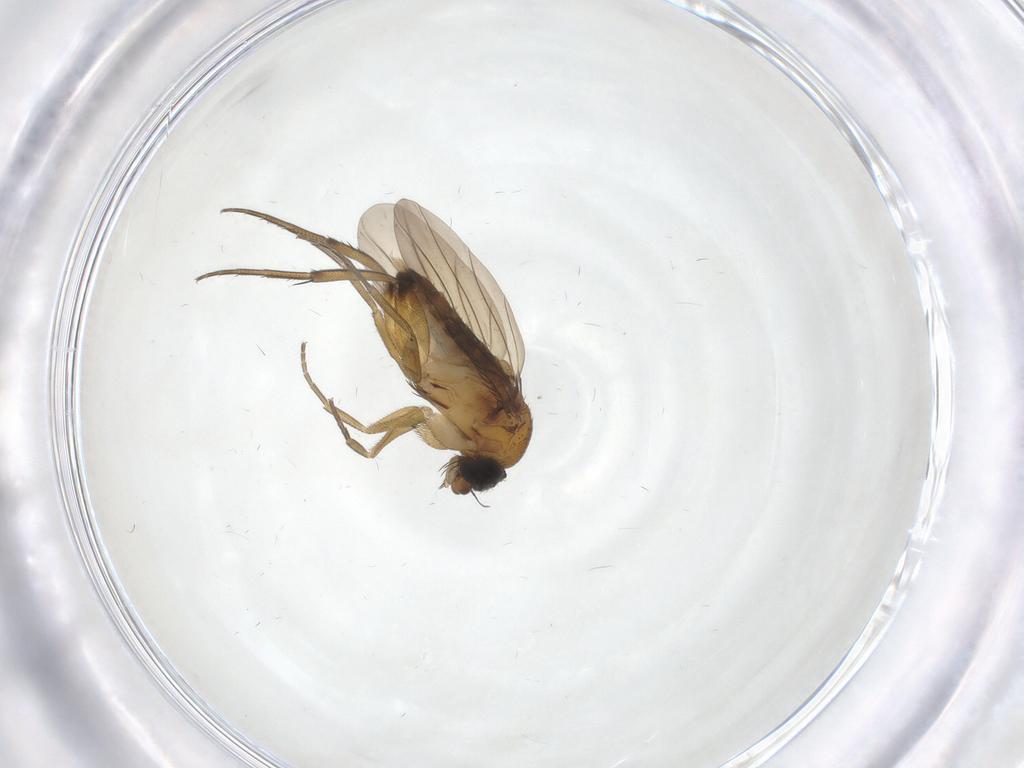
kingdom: Animalia
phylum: Arthropoda
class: Insecta
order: Diptera
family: Phoridae
